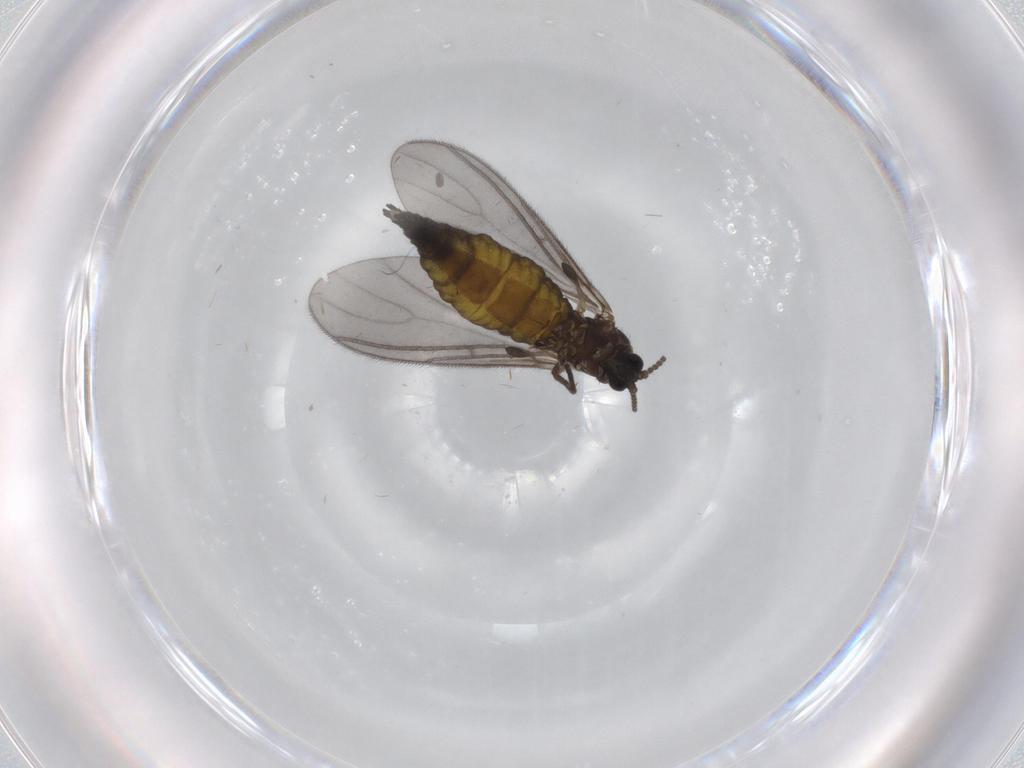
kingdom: Animalia
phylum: Arthropoda
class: Insecta
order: Diptera
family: Sciaridae
